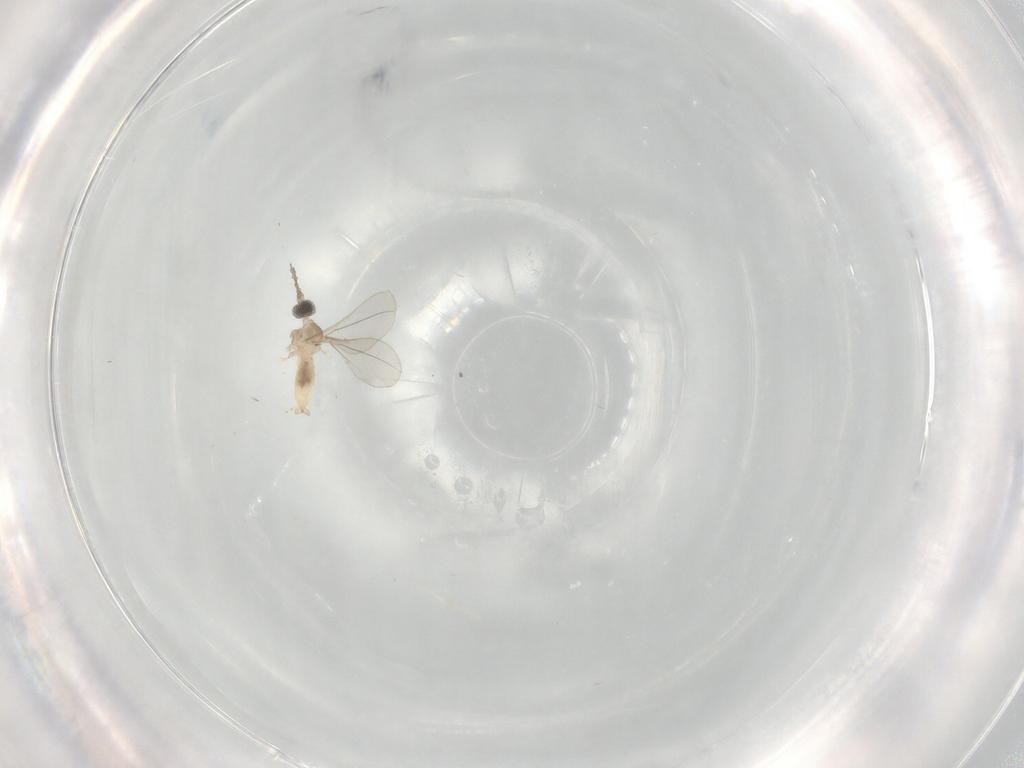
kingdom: Animalia
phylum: Arthropoda
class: Insecta
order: Diptera
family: Cecidomyiidae
